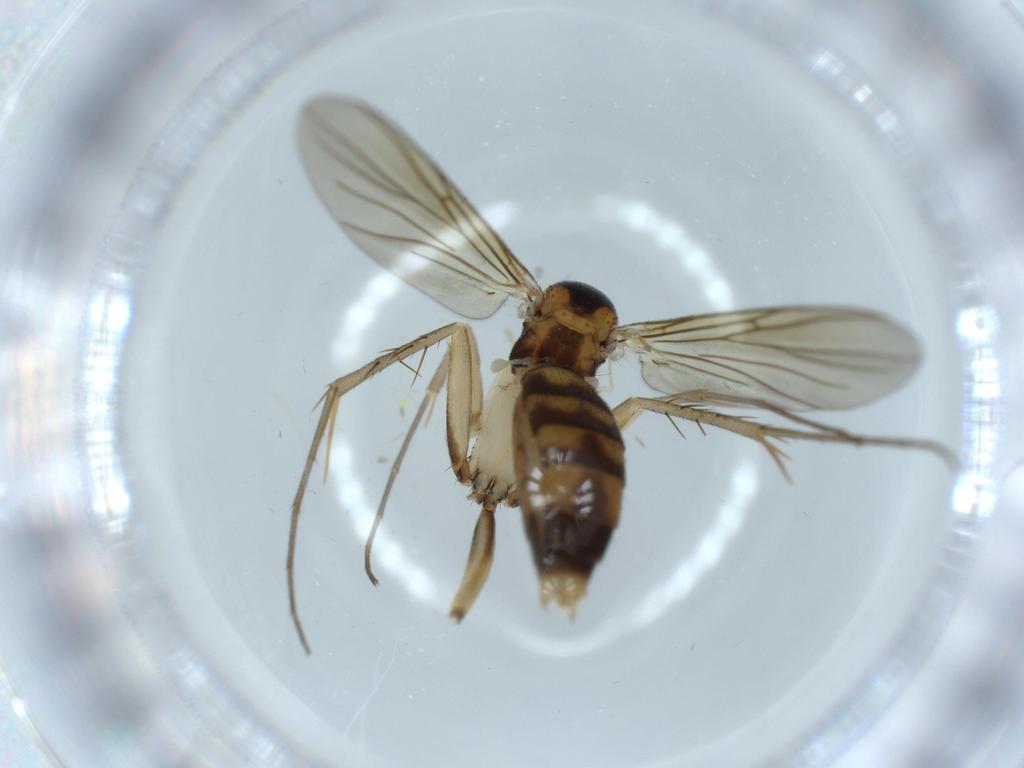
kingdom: Animalia
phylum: Arthropoda
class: Insecta
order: Diptera
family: Mycetophilidae
